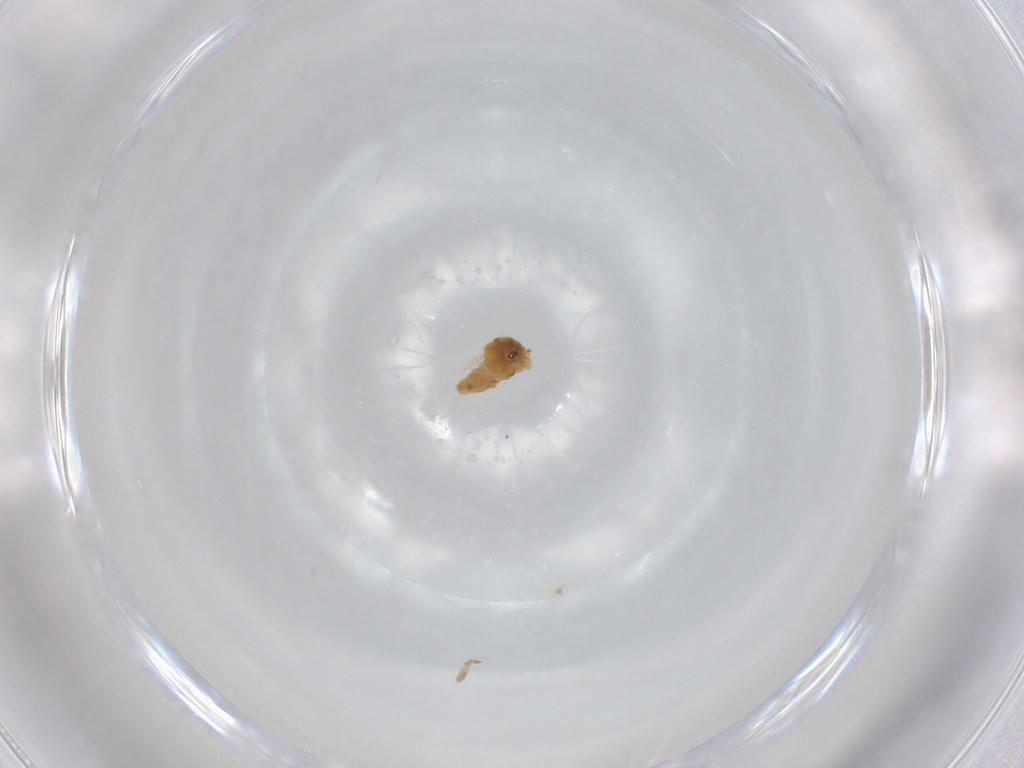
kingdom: Animalia
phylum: Arthropoda
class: Insecta
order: Hemiptera
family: Aleyrodidae
